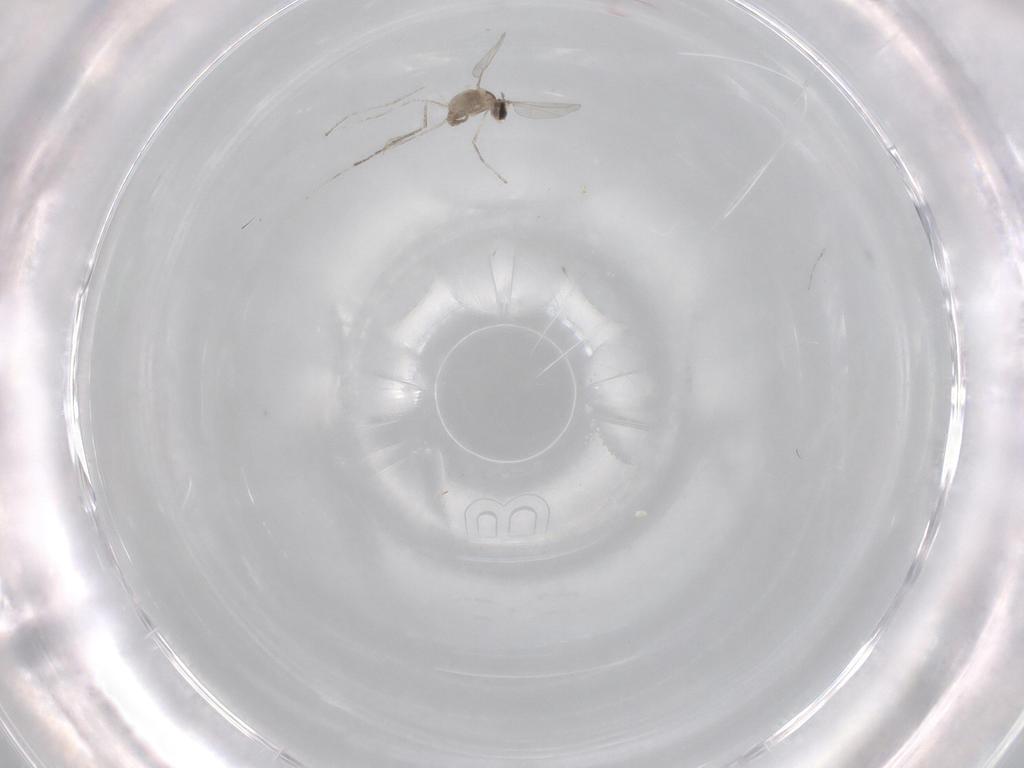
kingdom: Animalia
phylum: Arthropoda
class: Insecta
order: Diptera
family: Cecidomyiidae
